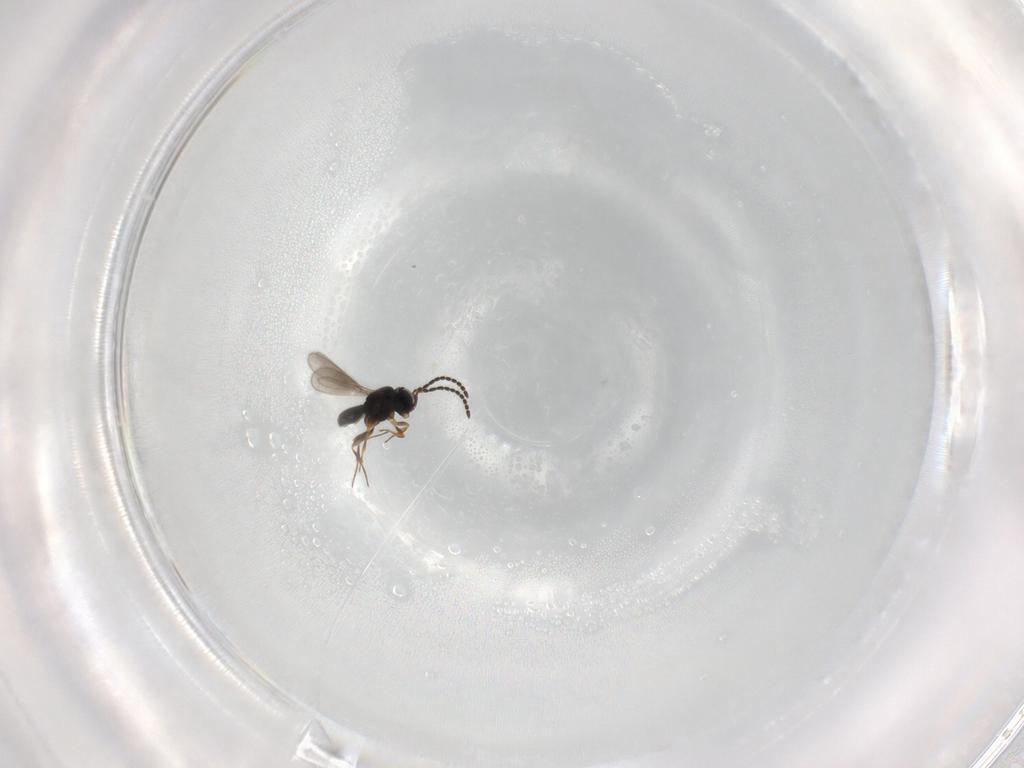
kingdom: Animalia
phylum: Arthropoda
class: Insecta
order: Hymenoptera
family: Scelionidae
